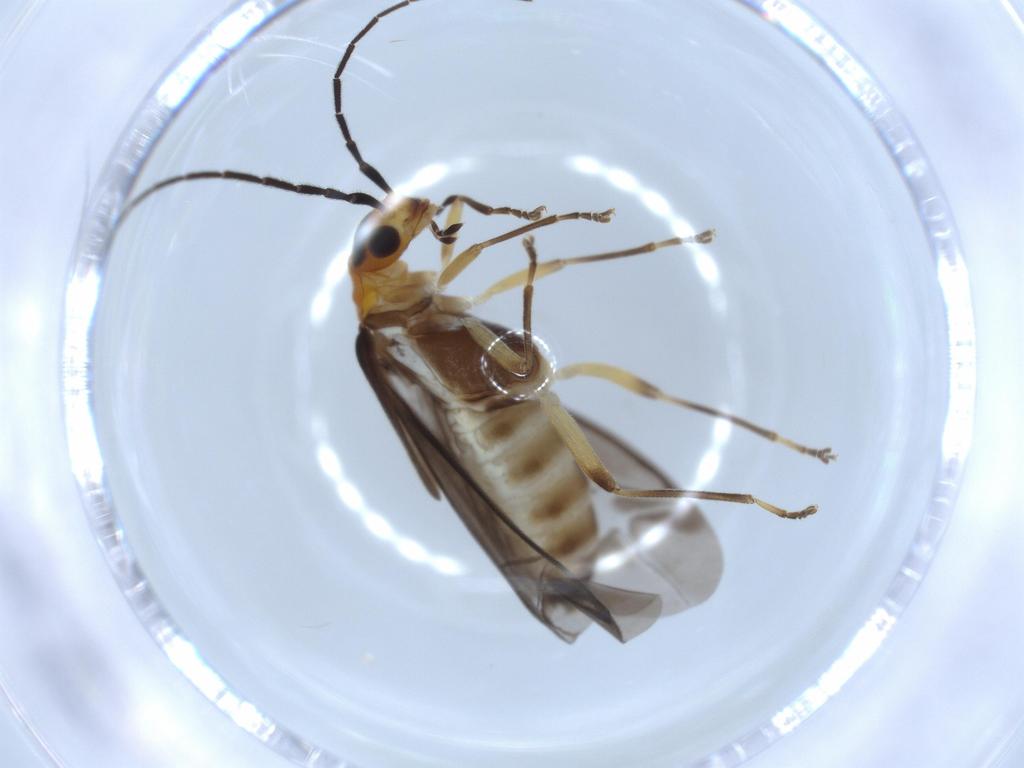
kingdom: Animalia
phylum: Arthropoda
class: Insecta
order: Coleoptera
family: Cantharidae
